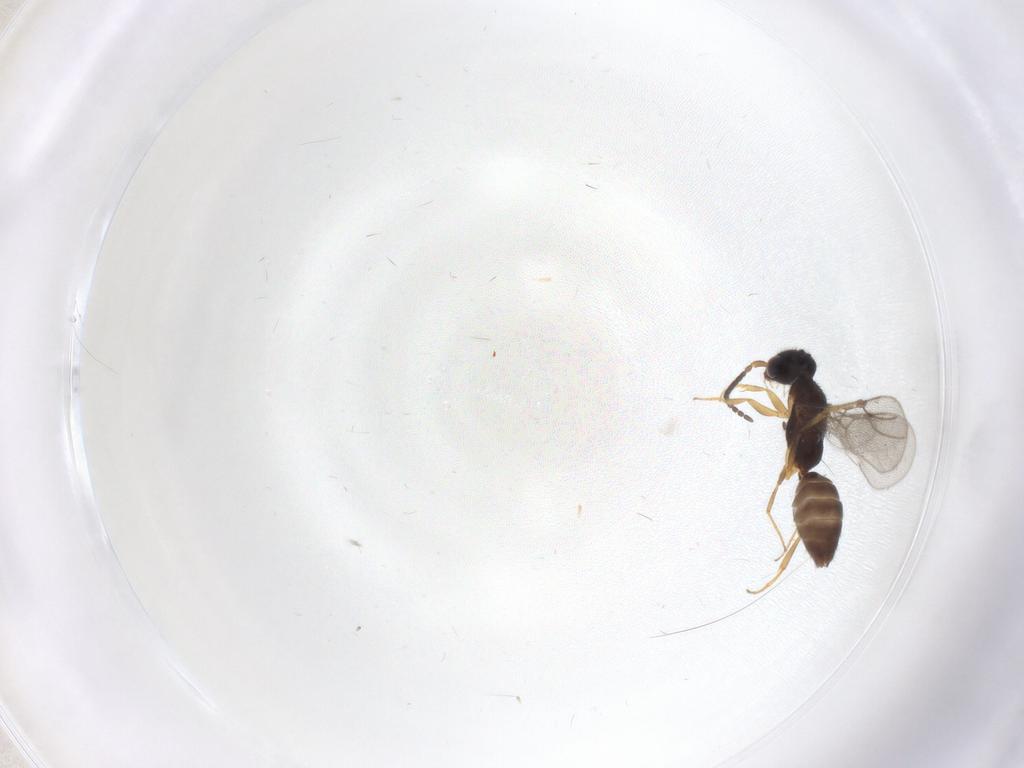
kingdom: Animalia
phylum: Arthropoda
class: Insecta
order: Hymenoptera
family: Bethylidae
